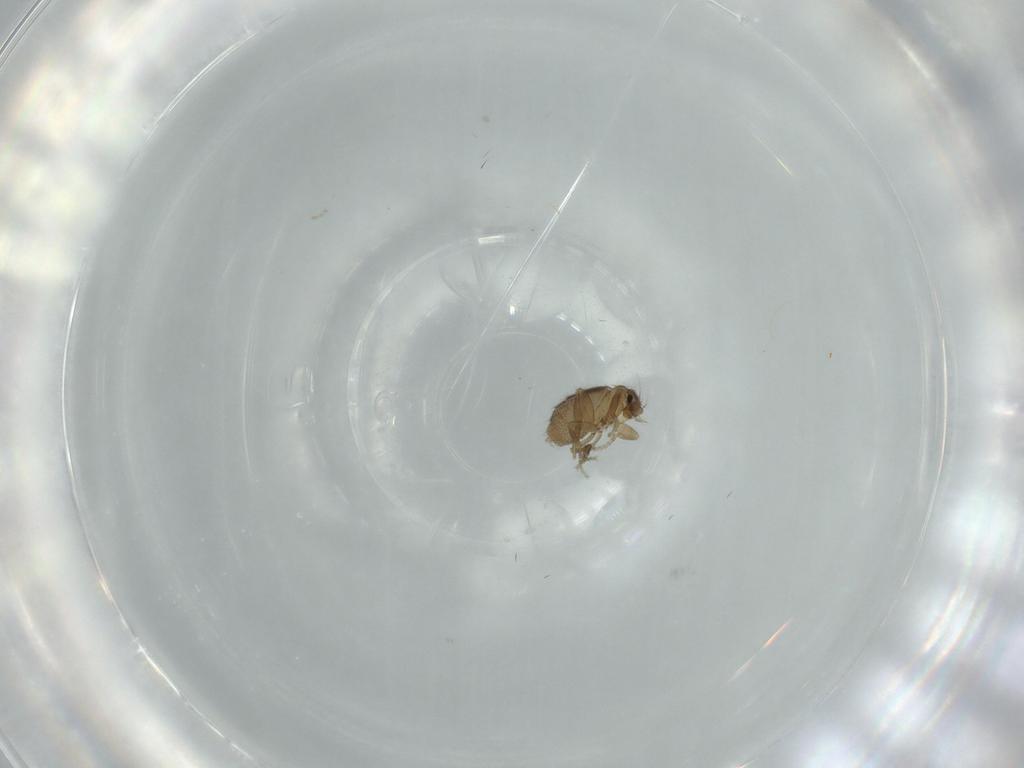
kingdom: Animalia
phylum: Arthropoda
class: Insecta
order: Diptera
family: Phoridae
